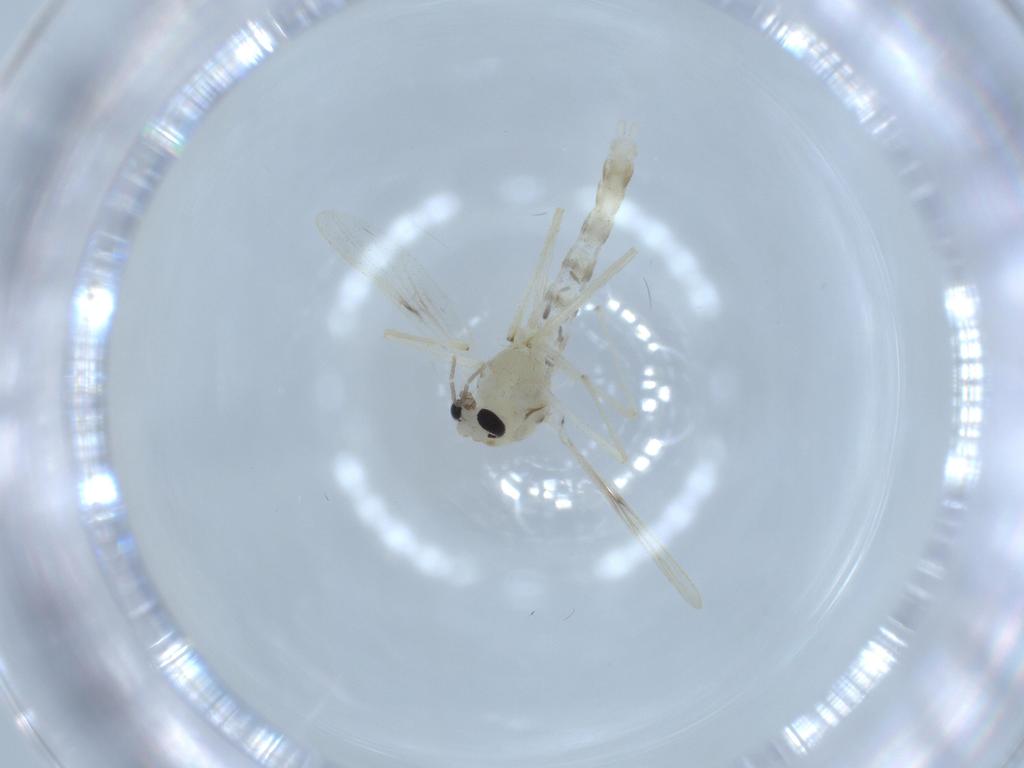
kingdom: Animalia
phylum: Arthropoda
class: Insecta
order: Diptera
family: Chironomidae
